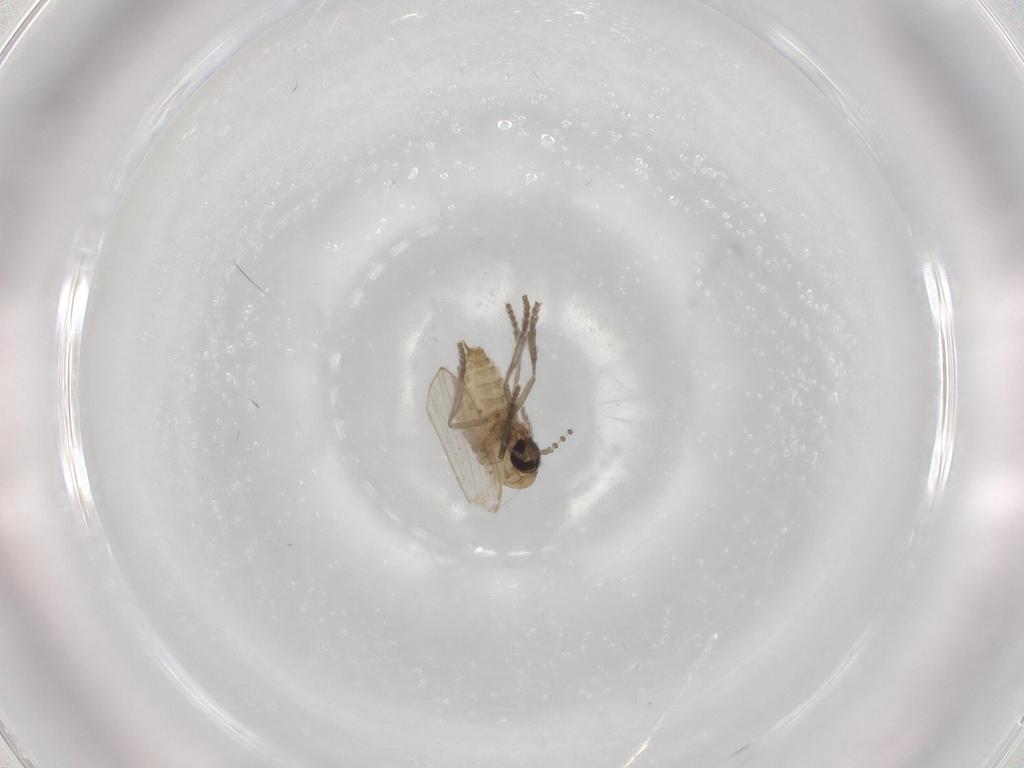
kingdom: Animalia
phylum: Arthropoda
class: Insecta
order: Diptera
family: Psychodidae
